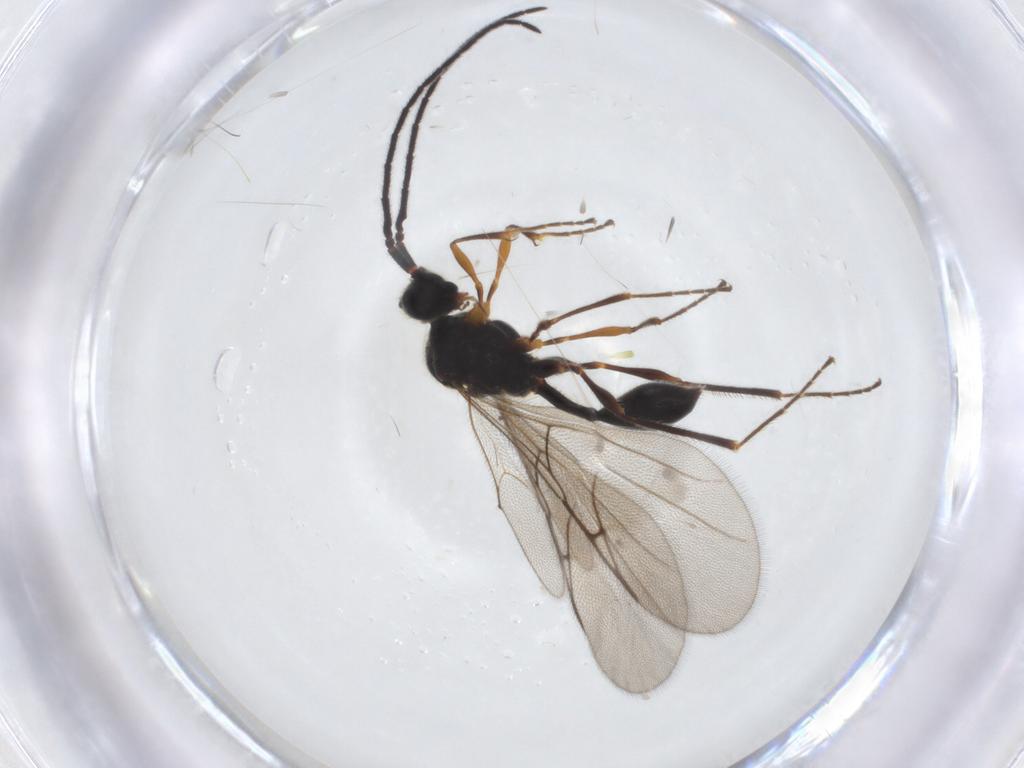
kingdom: Animalia
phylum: Arthropoda
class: Insecta
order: Hymenoptera
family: Diapriidae
